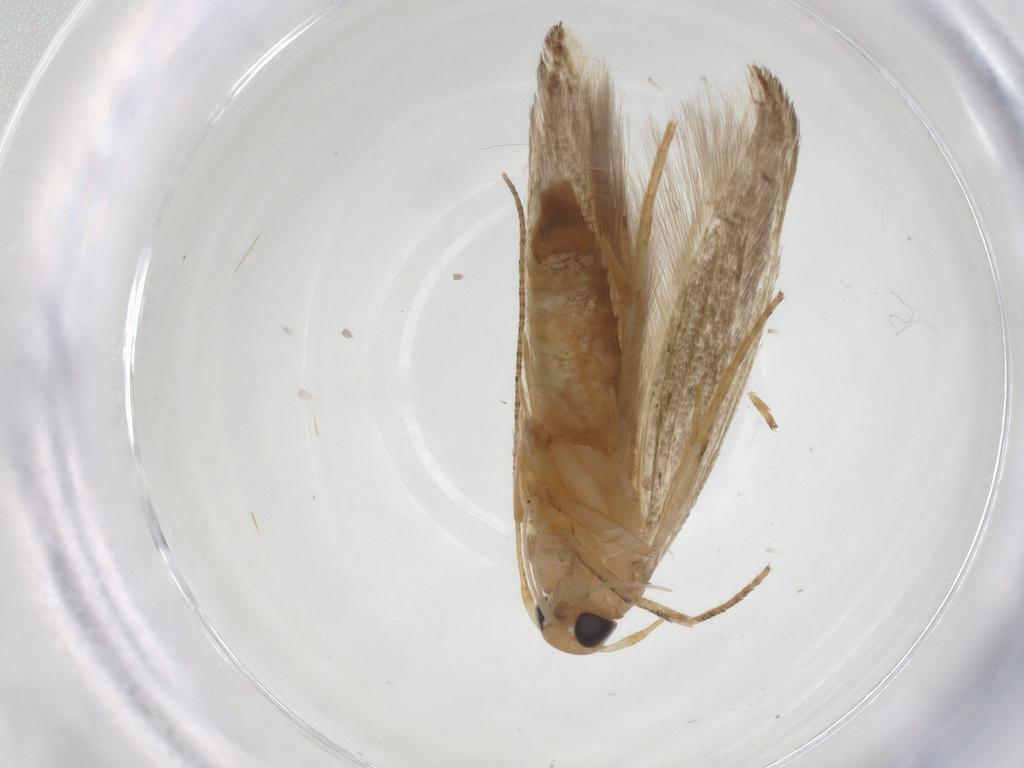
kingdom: Animalia
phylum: Arthropoda
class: Insecta
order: Lepidoptera
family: Momphidae
